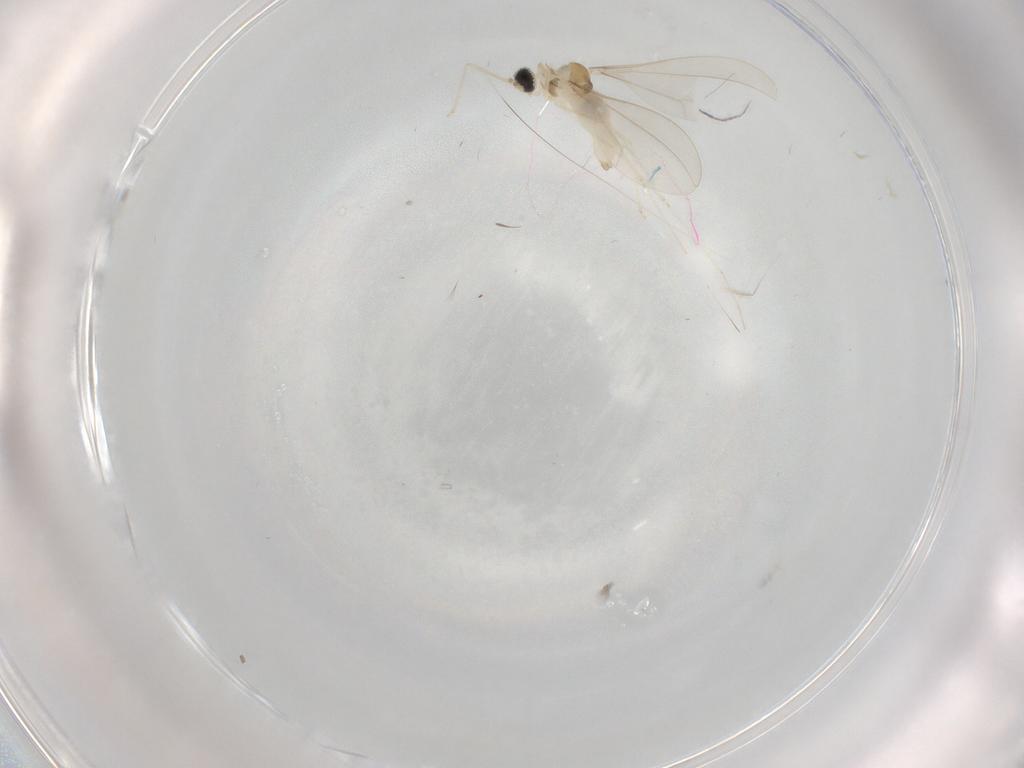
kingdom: Animalia
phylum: Arthropoda
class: Insecta
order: Diptera
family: Cecidomyiidae
